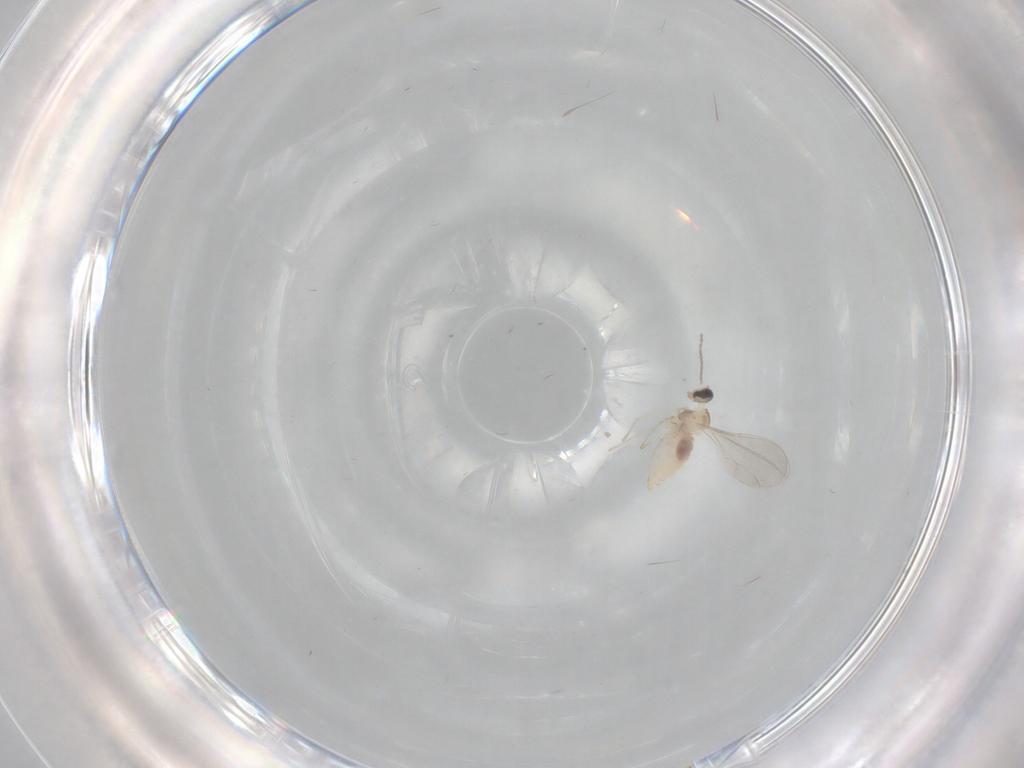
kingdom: Animalia
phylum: Arthropoda
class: Insecta
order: Diptera
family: Cecidomyiidae
